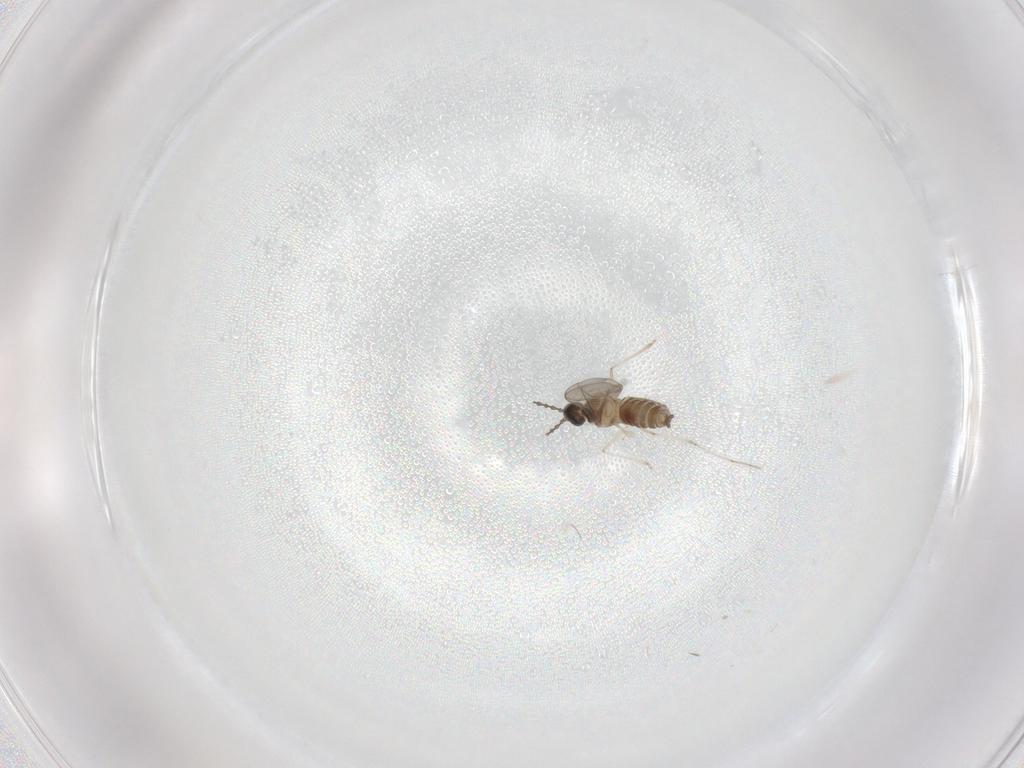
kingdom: Animalia
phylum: Arthropoda
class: Insecta
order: Diptera
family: Cecidomyiidae
